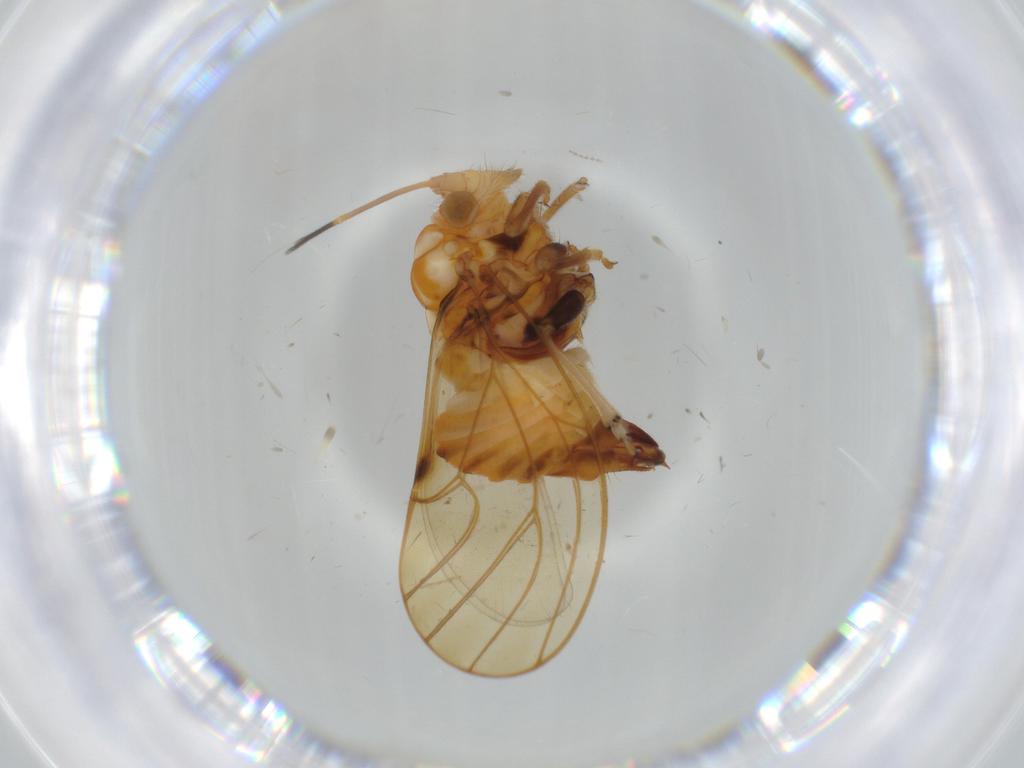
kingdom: Animalia
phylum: Arthropoda
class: Insecta
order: Hemiptera
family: Psyllidae
